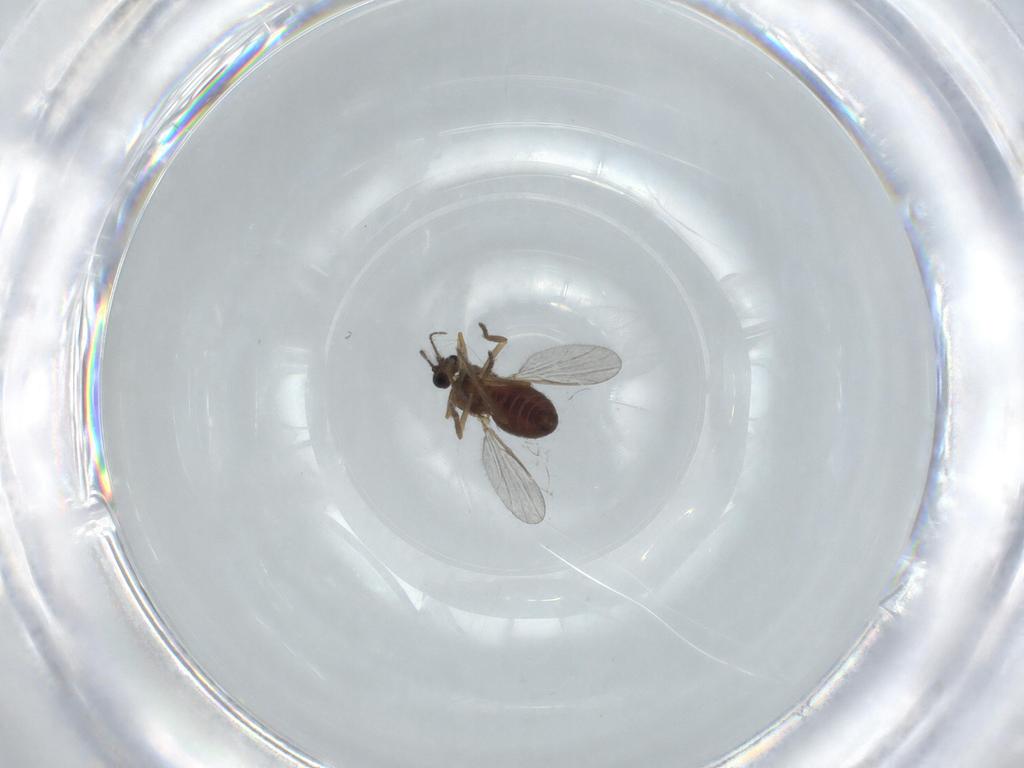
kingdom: Animalia
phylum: Arthropoda
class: Insecta
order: Diptera
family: Ceratopogonidae
